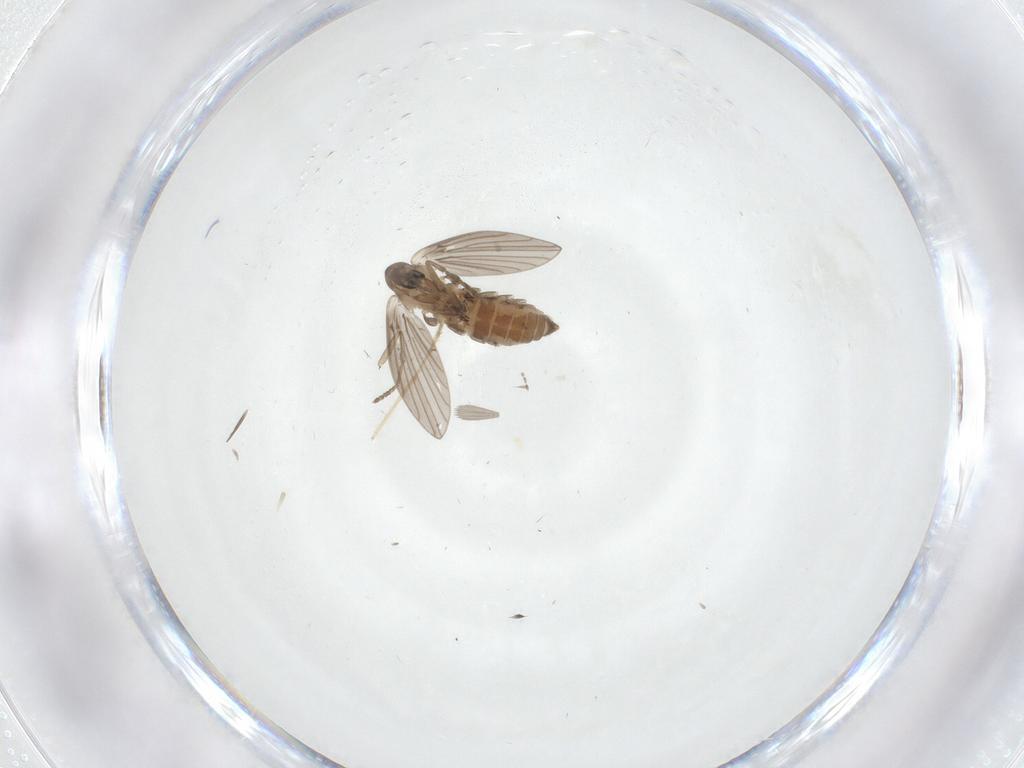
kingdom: Animalia
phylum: Arthropoda
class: Insecta
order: Diptera
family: Psychodidae
